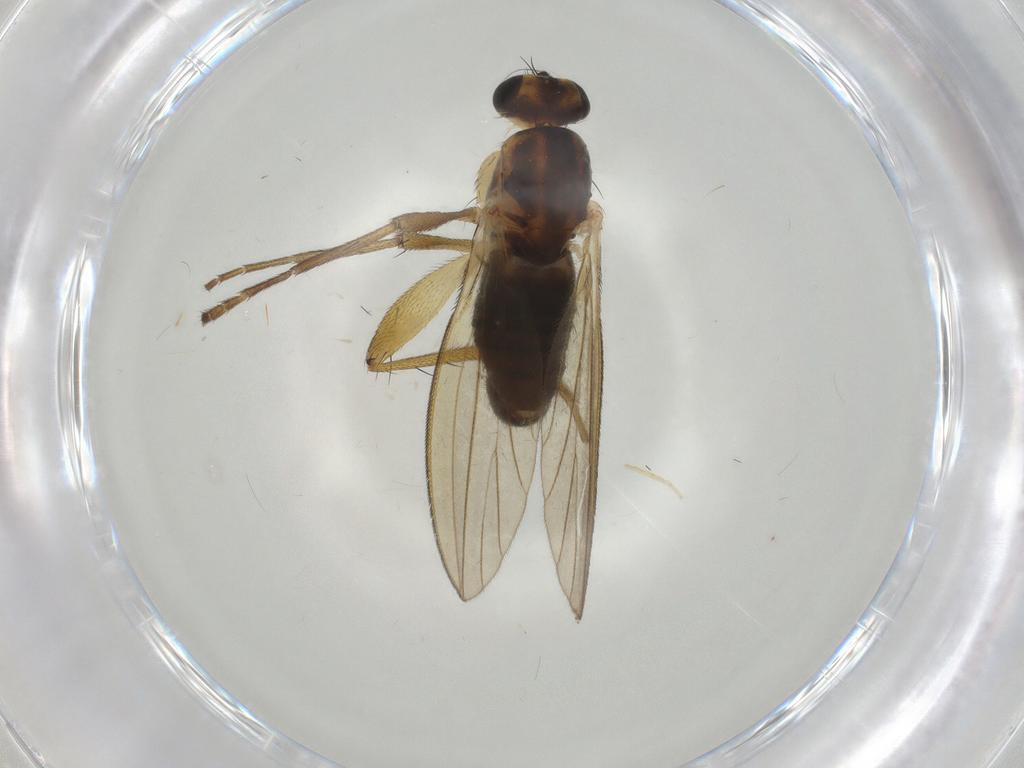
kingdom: Animalia
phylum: Arthropoda
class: Insecta
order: Diptera
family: Lonchopteridae
